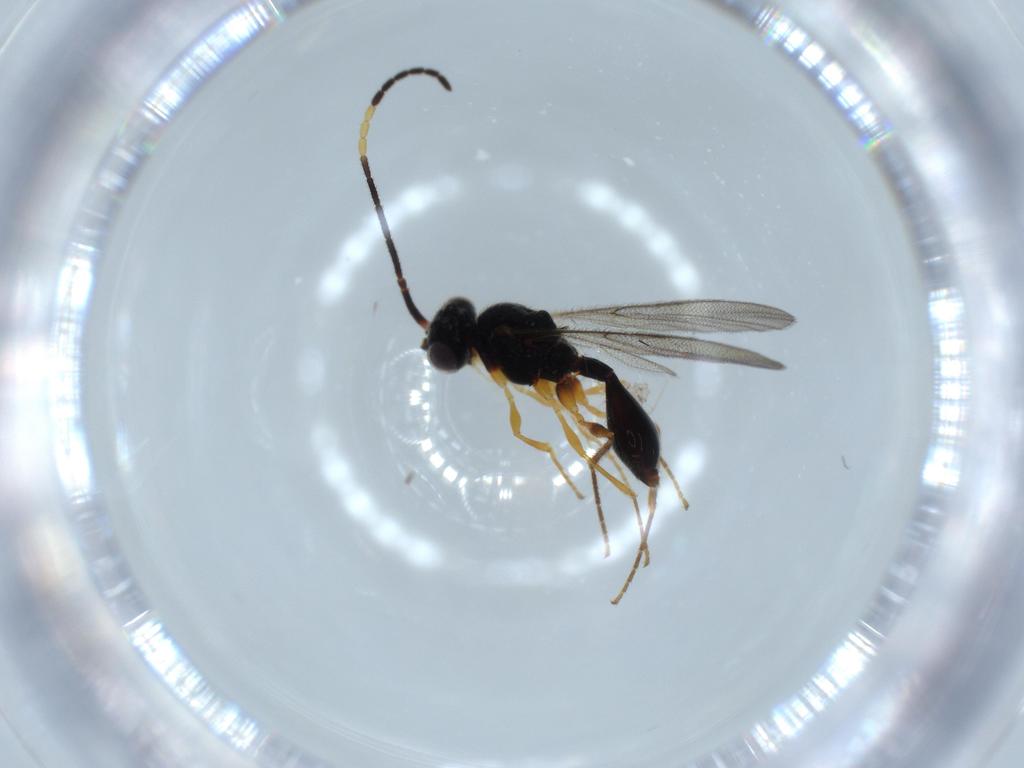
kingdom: Animalia
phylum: Arthropoda
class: Insecta
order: Hymenoptera
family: Diapriidae
